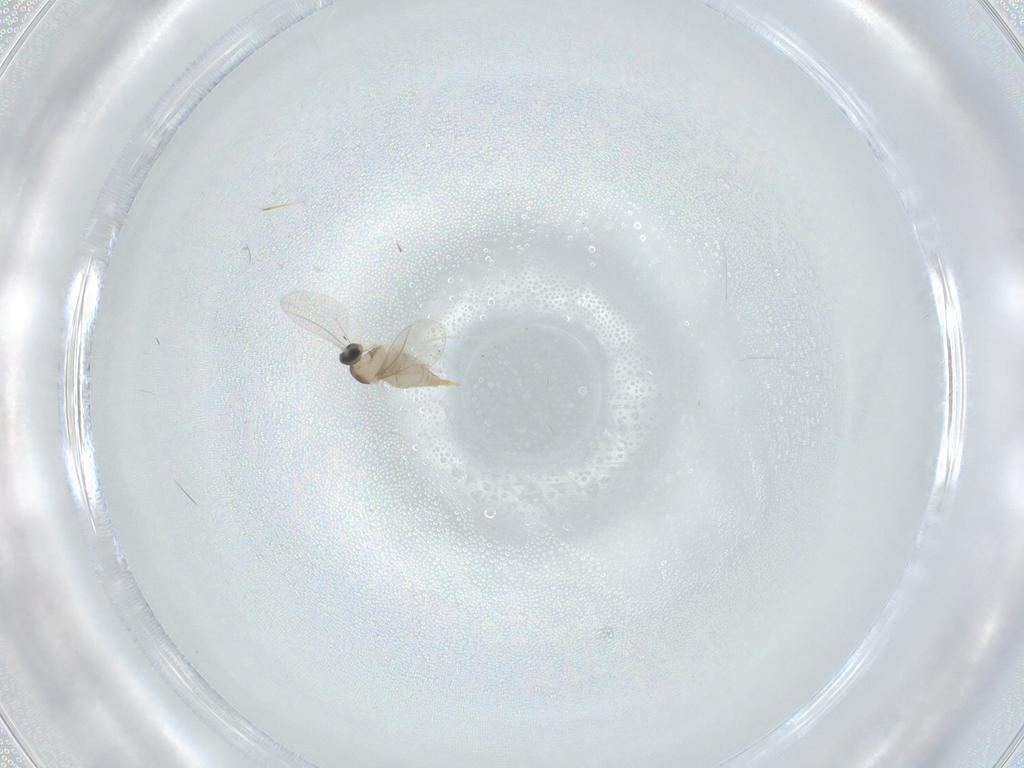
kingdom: Animalia
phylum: Arthropoda
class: Insecta
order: Diptera
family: Cecidomyiidae
